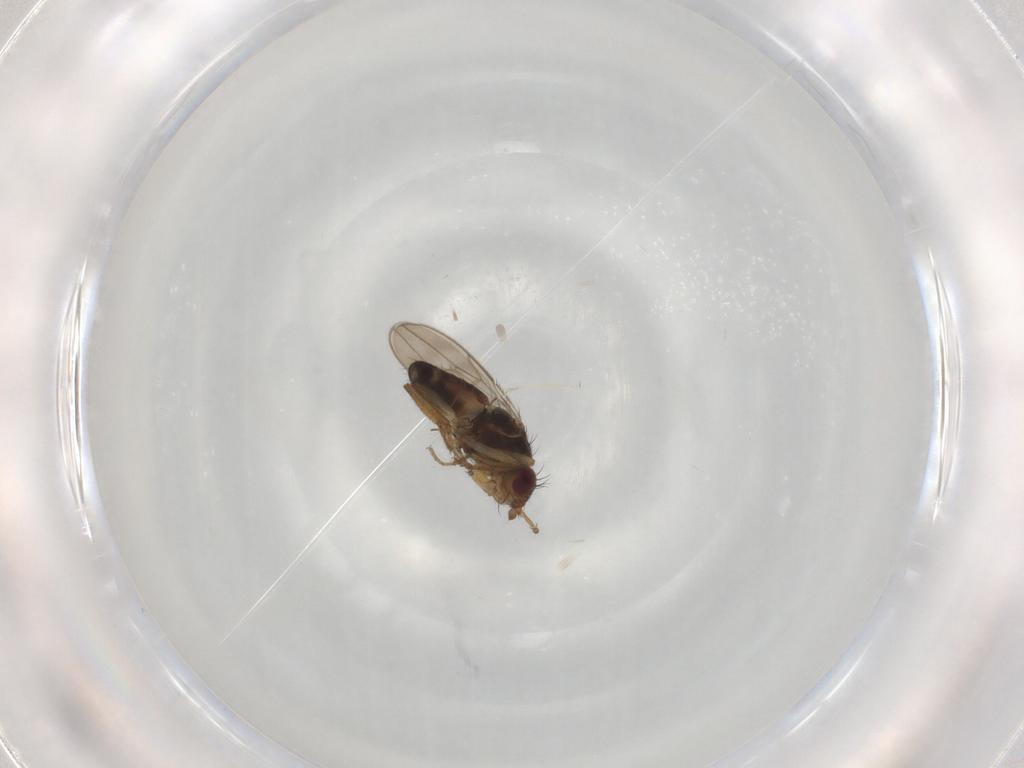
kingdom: Animalia
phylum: Arthropoda
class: Insecta
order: Diptera
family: Sphaeroceridae
